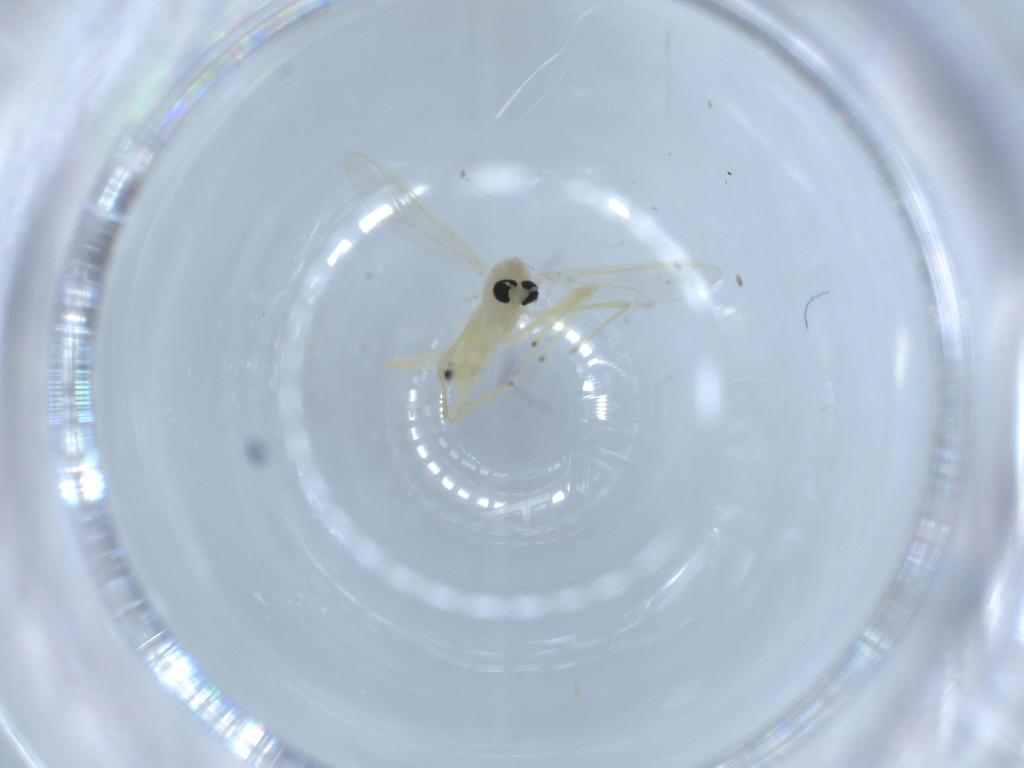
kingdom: Animalia
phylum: Arthropoda
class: Insecta
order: Diptera
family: Chironomidae
